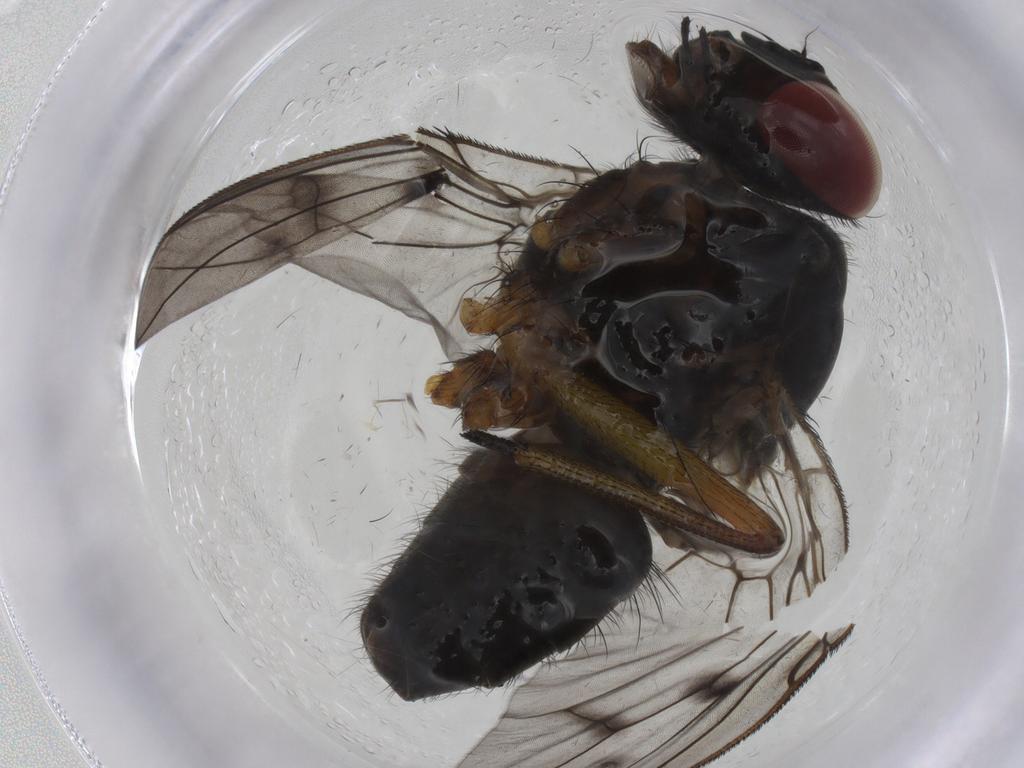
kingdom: Animalia
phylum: Arthropoda
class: Insecta
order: Diptera
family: Muscidae
